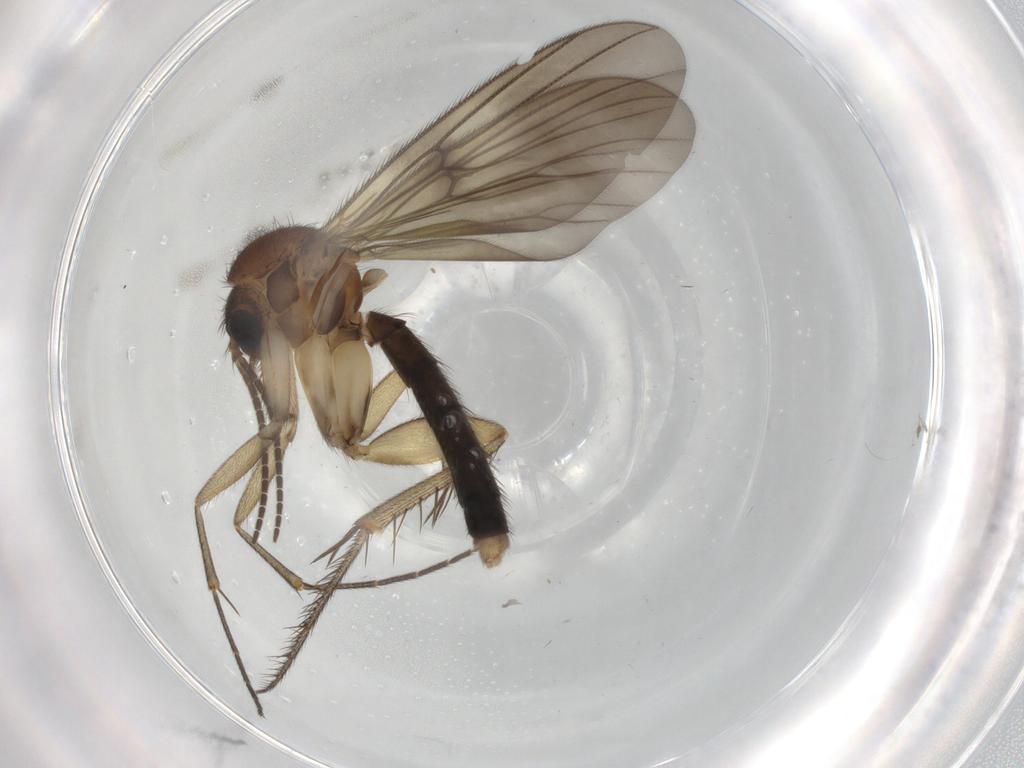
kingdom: Animalia
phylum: Arthropoda
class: Insecta
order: Diptera
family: Mycetophilidae
